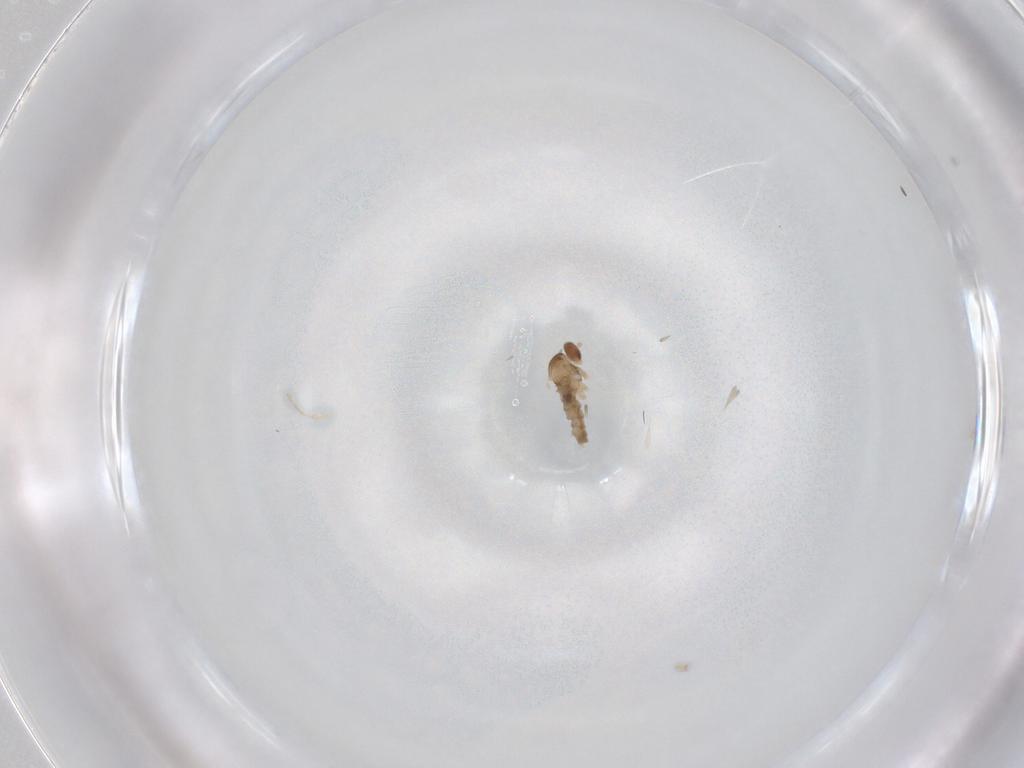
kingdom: Animalia
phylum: Arthropoda
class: Insecta
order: Diptera
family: Cecidomyiidae
